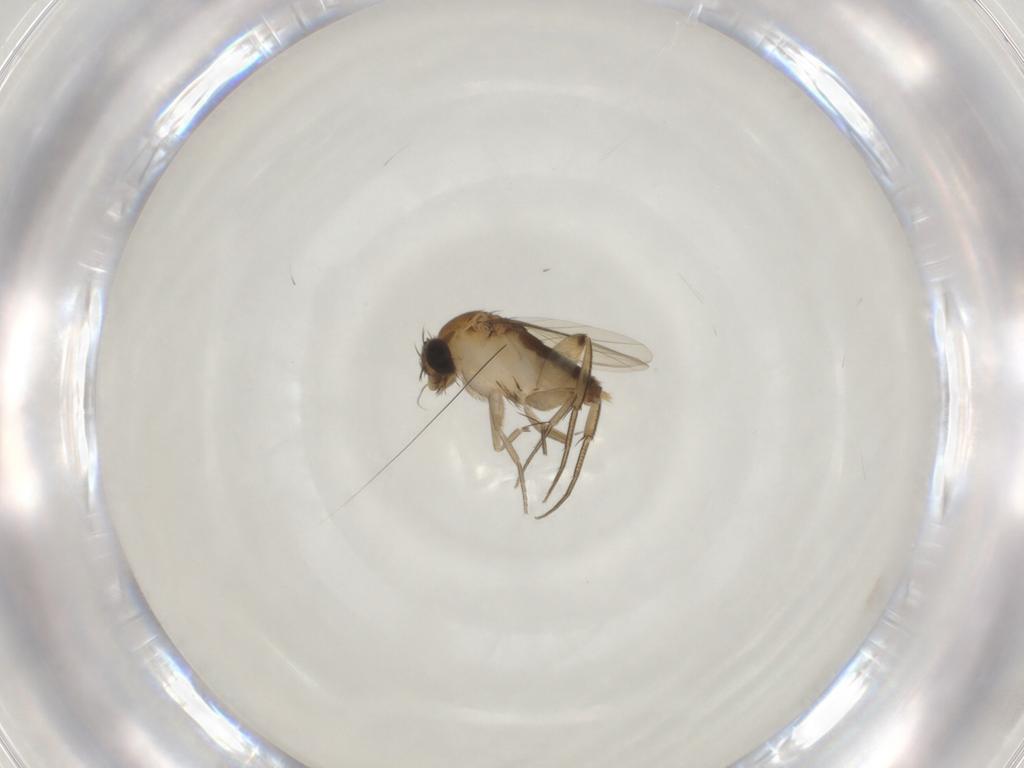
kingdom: Animalia
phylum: Arthropoda
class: Insecta
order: Diptera
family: Phoridae
